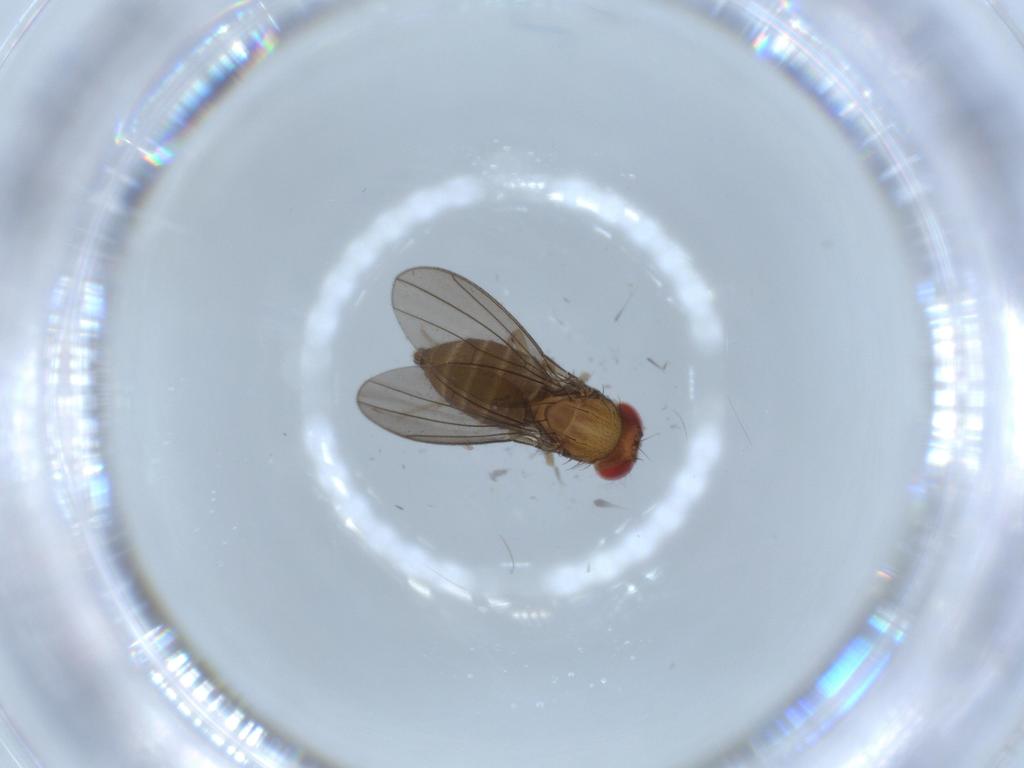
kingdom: Animalia
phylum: Arthropoda
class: Insecta
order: Diptera
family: Drosophilidae
